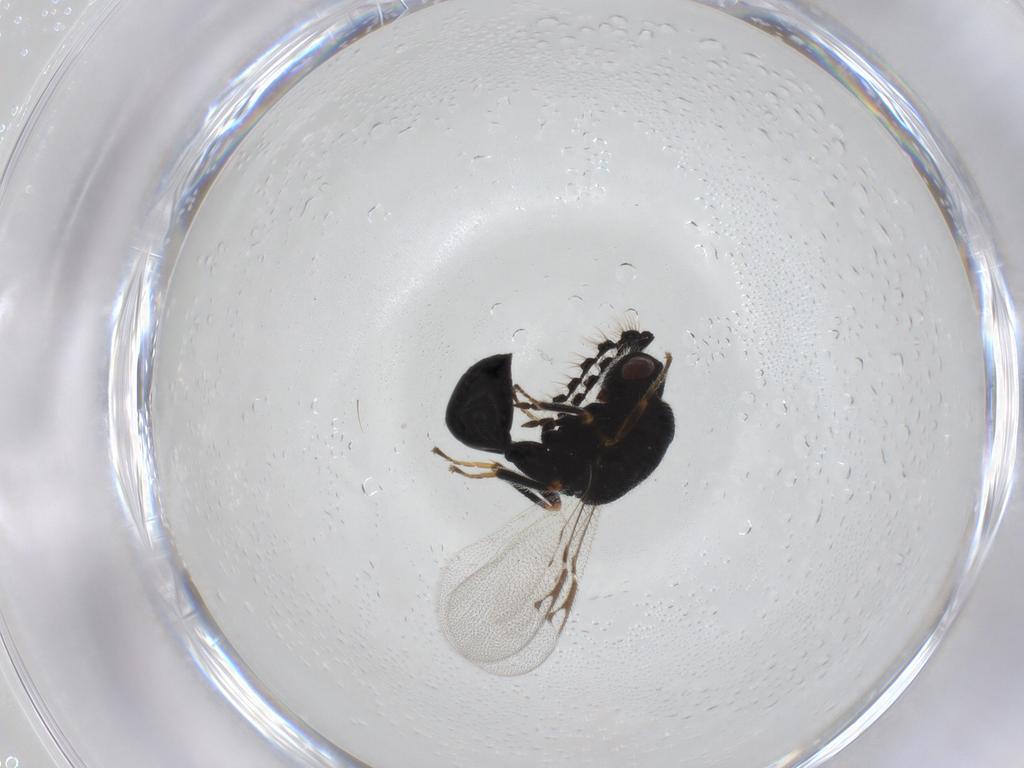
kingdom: Animalia
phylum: Arthropoda
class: Insecta
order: Hymenoptera
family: Eurytomidae
